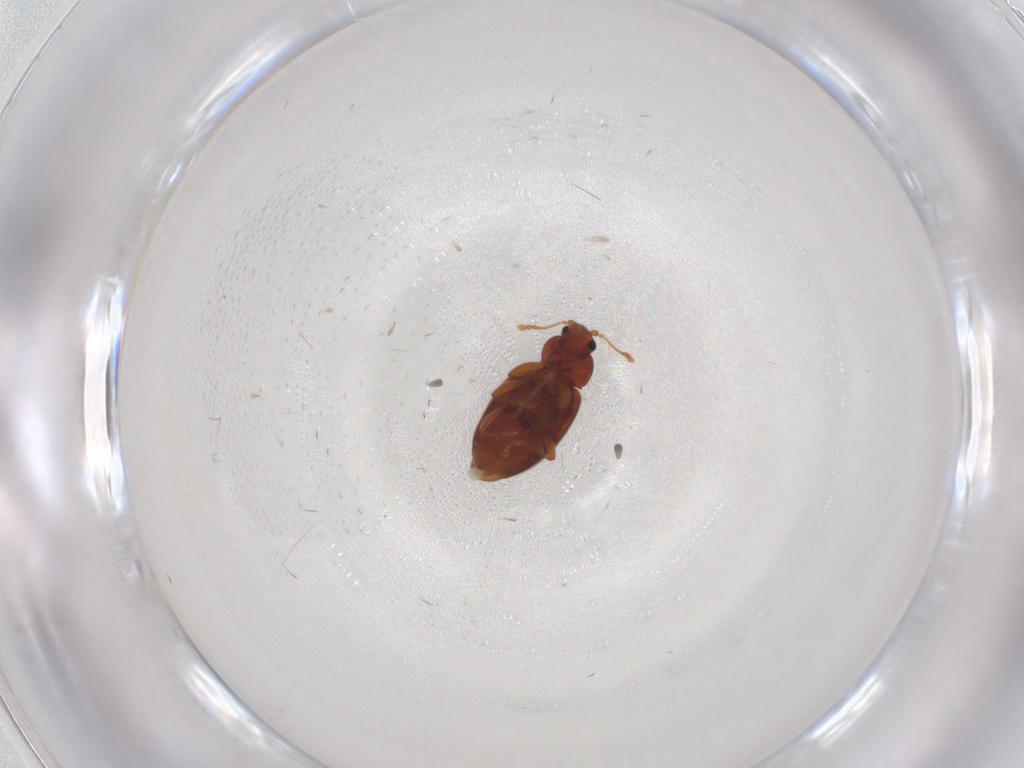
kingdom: Animalia
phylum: Arthropoda
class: Insecta
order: Coleoptera
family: Latridiidae
